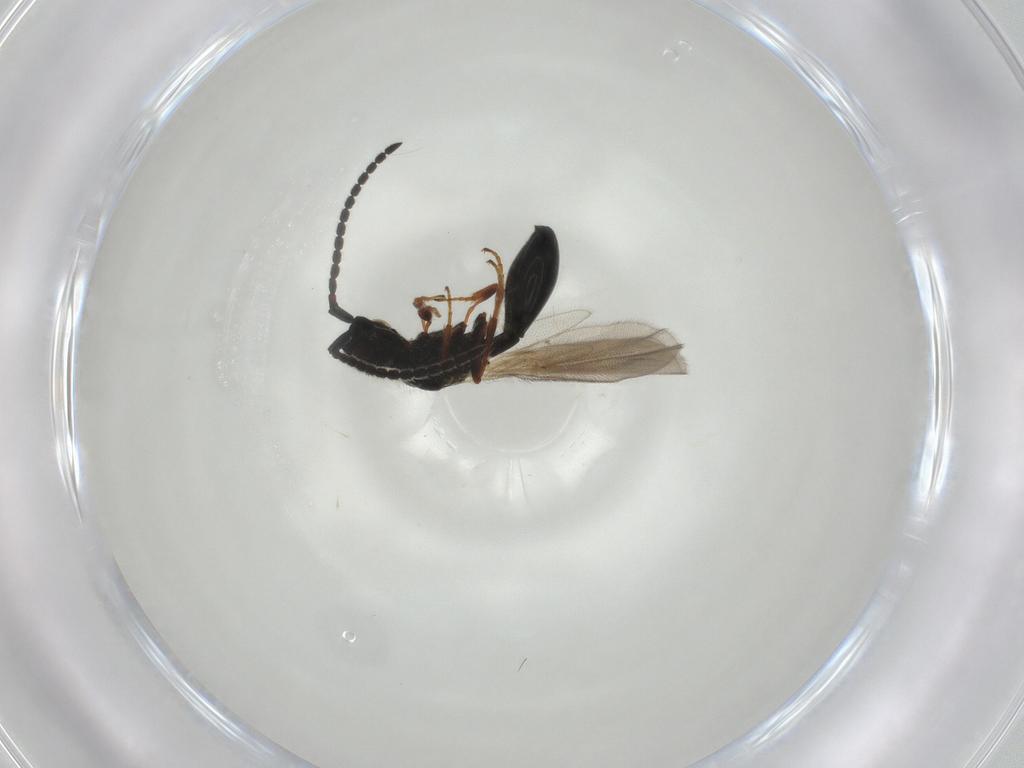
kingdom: Animalia
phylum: Arthropoda
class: Insecta
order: Hymenoptera
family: Diapriidae
